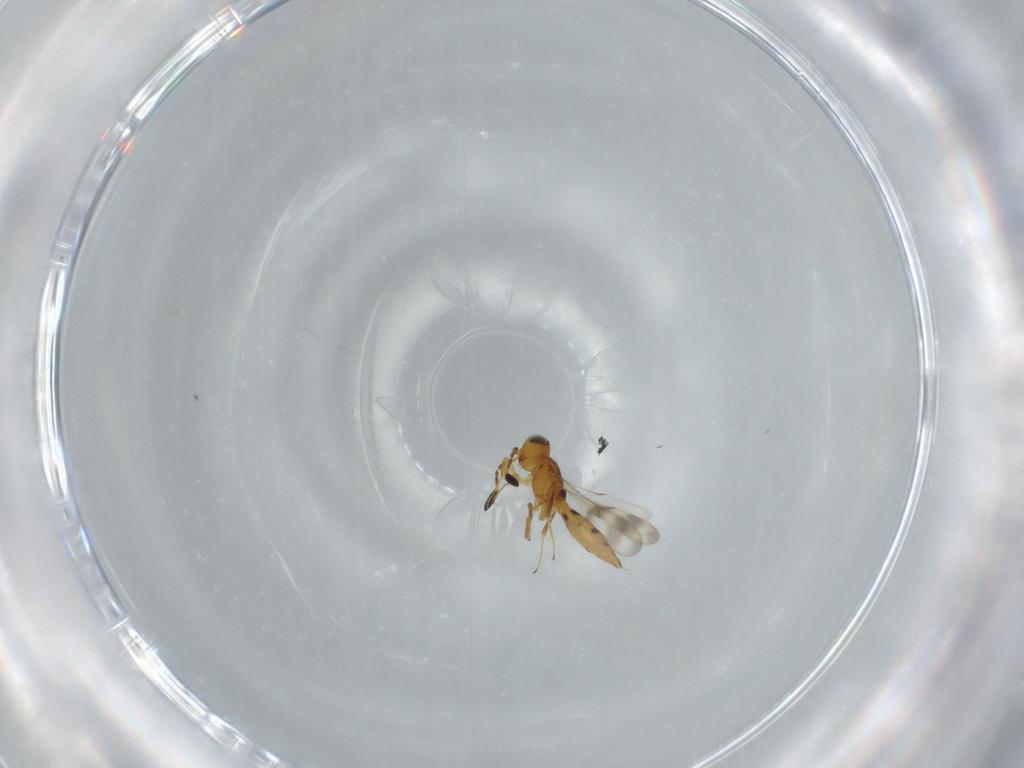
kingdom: Animalia
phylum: Arthropoda
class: Insecta
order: Hymenoptera
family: Scelionidae
